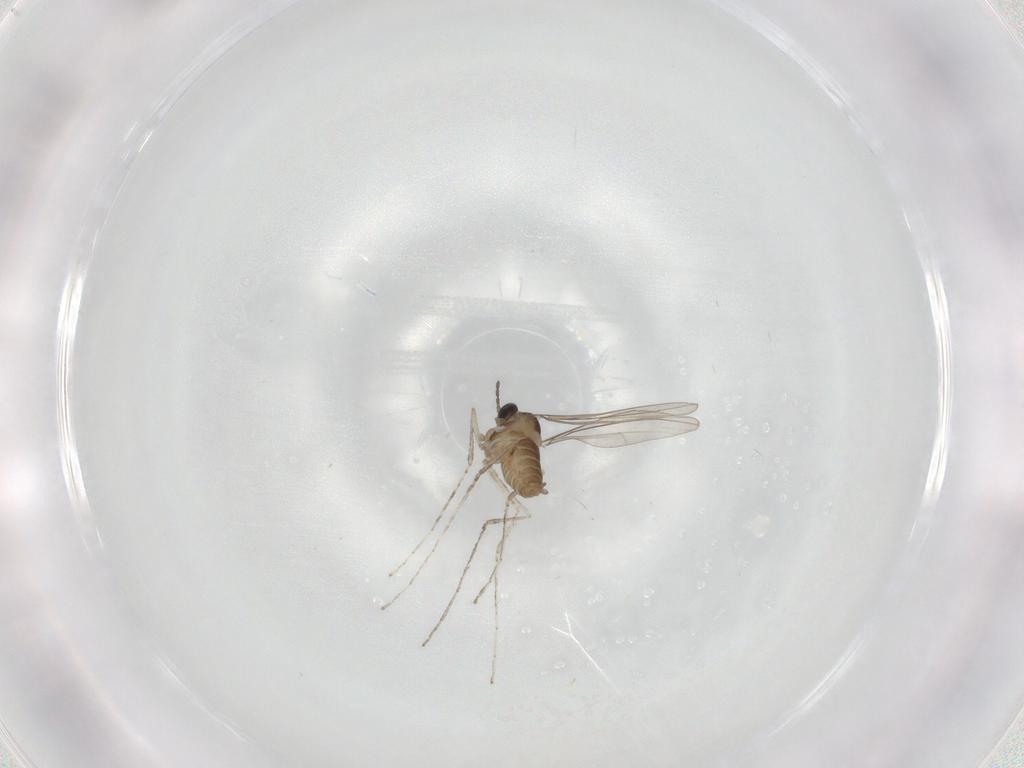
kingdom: Animalia
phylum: Arthropoda
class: Insecta
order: Diptera
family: Cecidomyiidae
